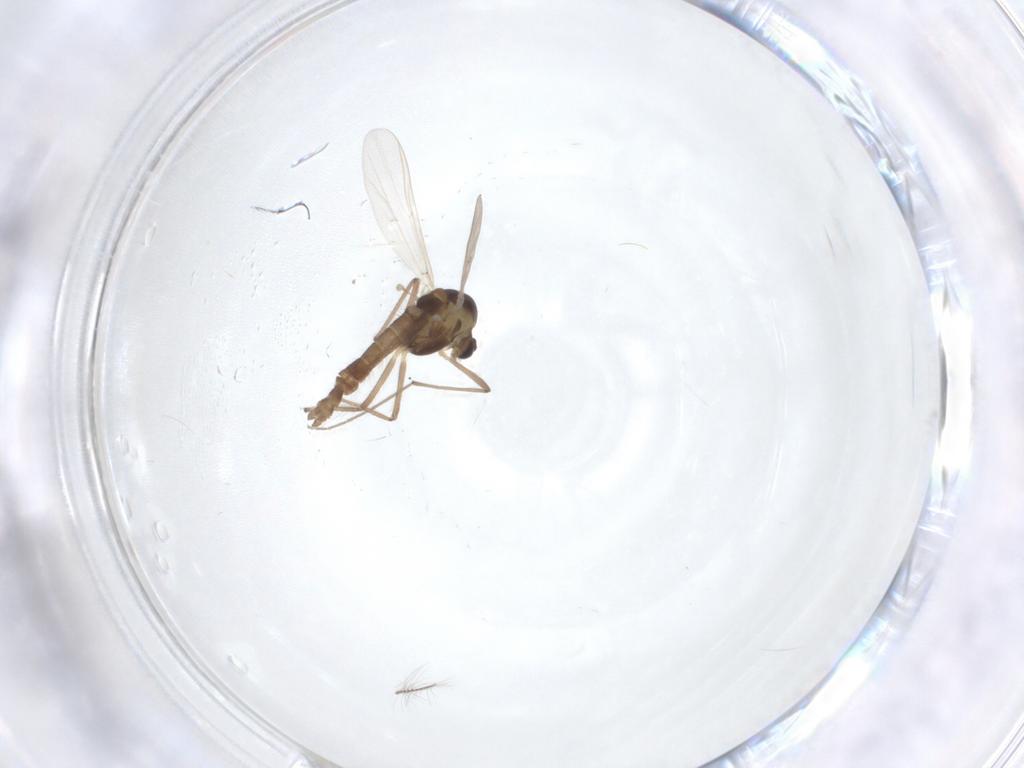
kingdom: Animalia
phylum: Arthropoda
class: Insecta
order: Diptera
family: Chironomidae
